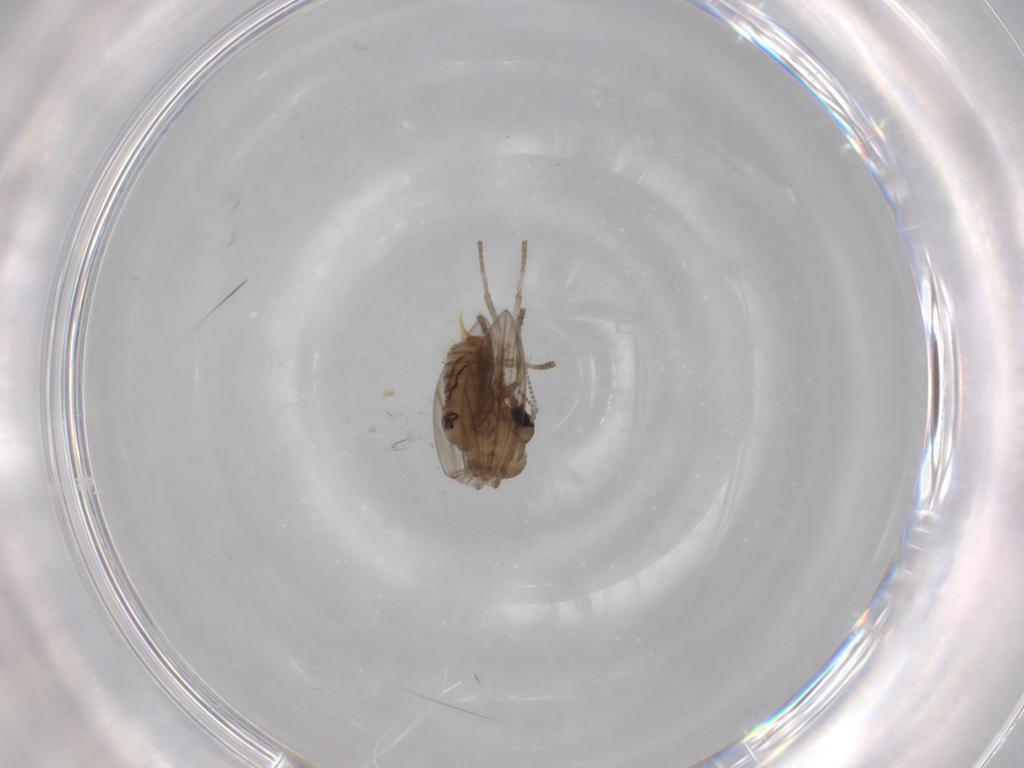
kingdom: Animalia
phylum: Arthropoda
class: Insecta
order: Diptera
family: Psychodidae
